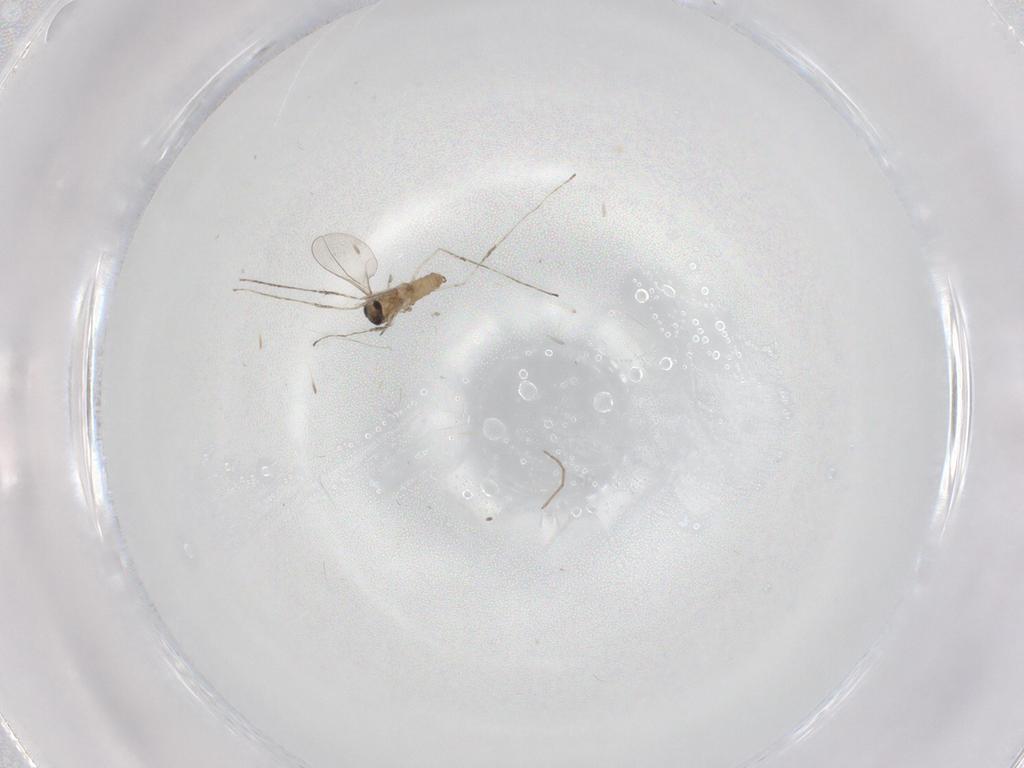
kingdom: Animalia
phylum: Arthropoda
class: Insecta
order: Diptera
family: Cecidomyiidae
